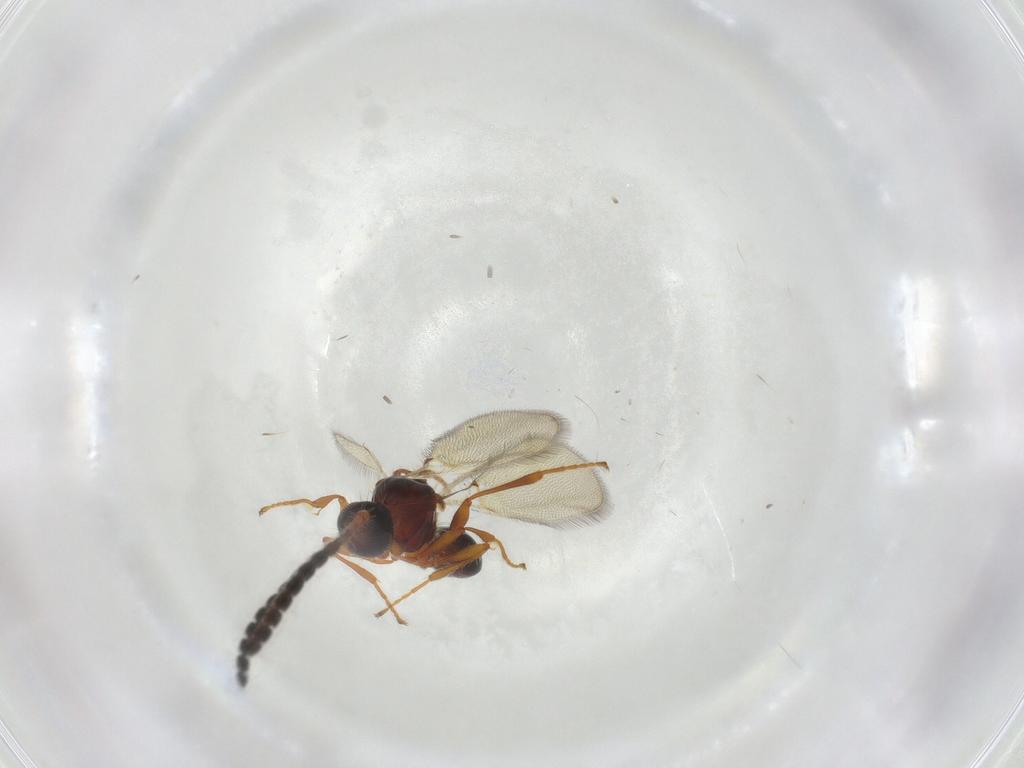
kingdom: Animalia
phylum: Arthropoda
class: Insecta
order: Hymenoptera
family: Diapriidae
